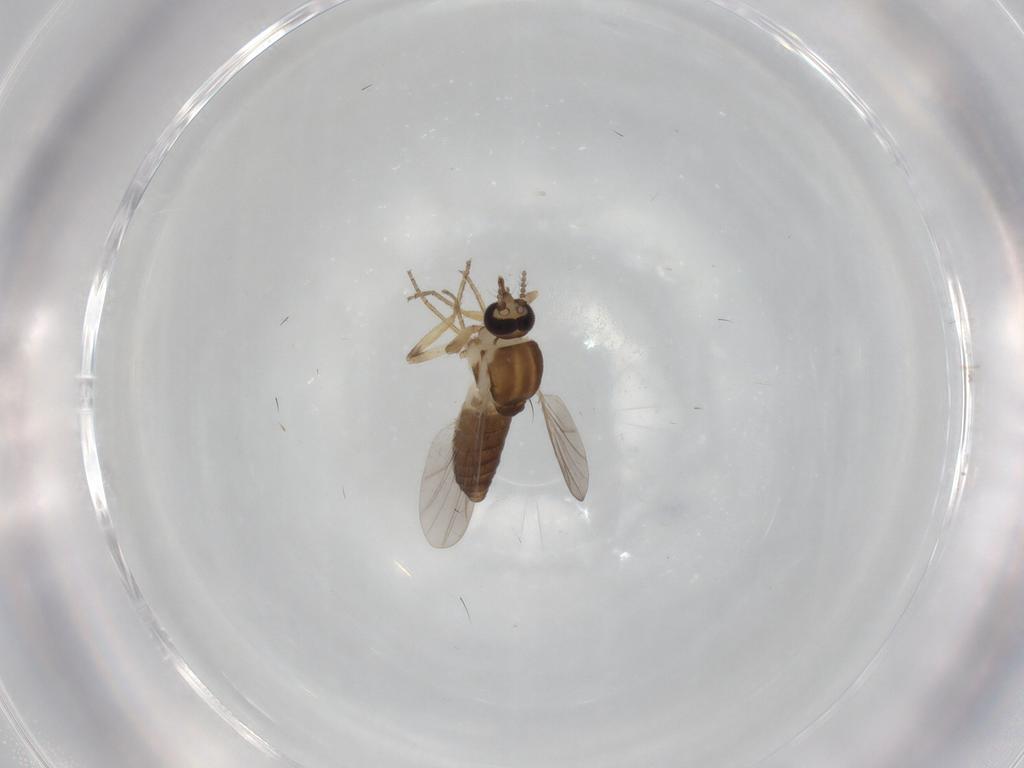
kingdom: Animalia
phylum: Arthropoda
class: Insecta
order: Diptera
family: Ceratopogonidae
